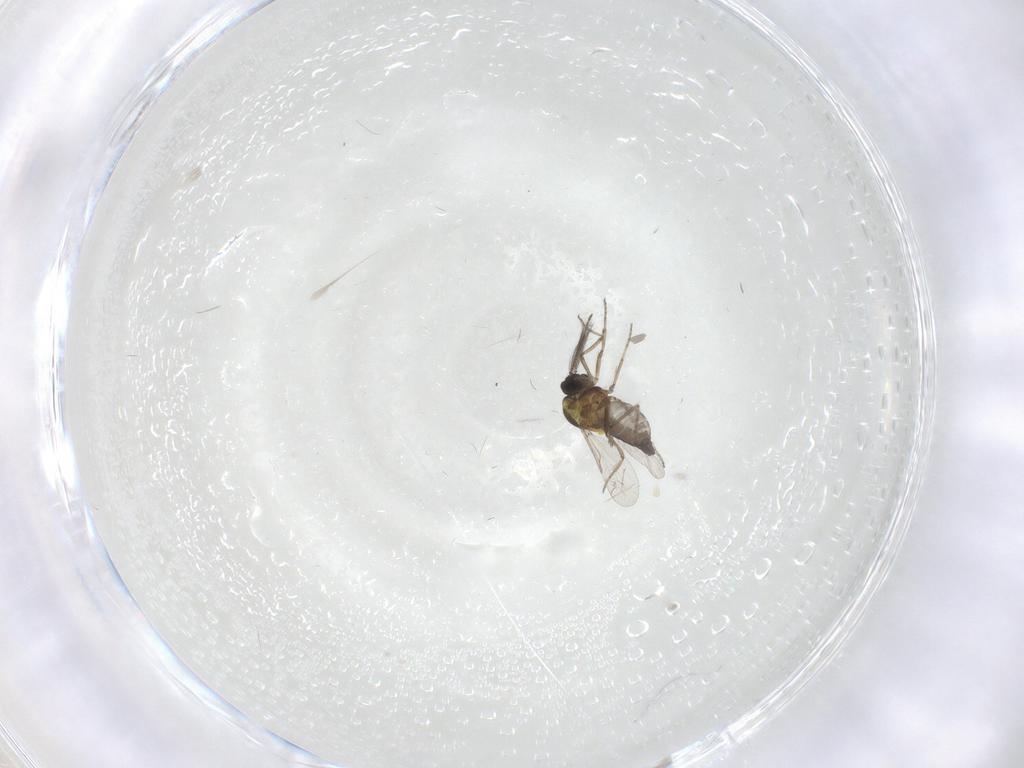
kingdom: Animalia
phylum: Arthropoda
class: Insecta
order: Diptera
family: Psychodidae
